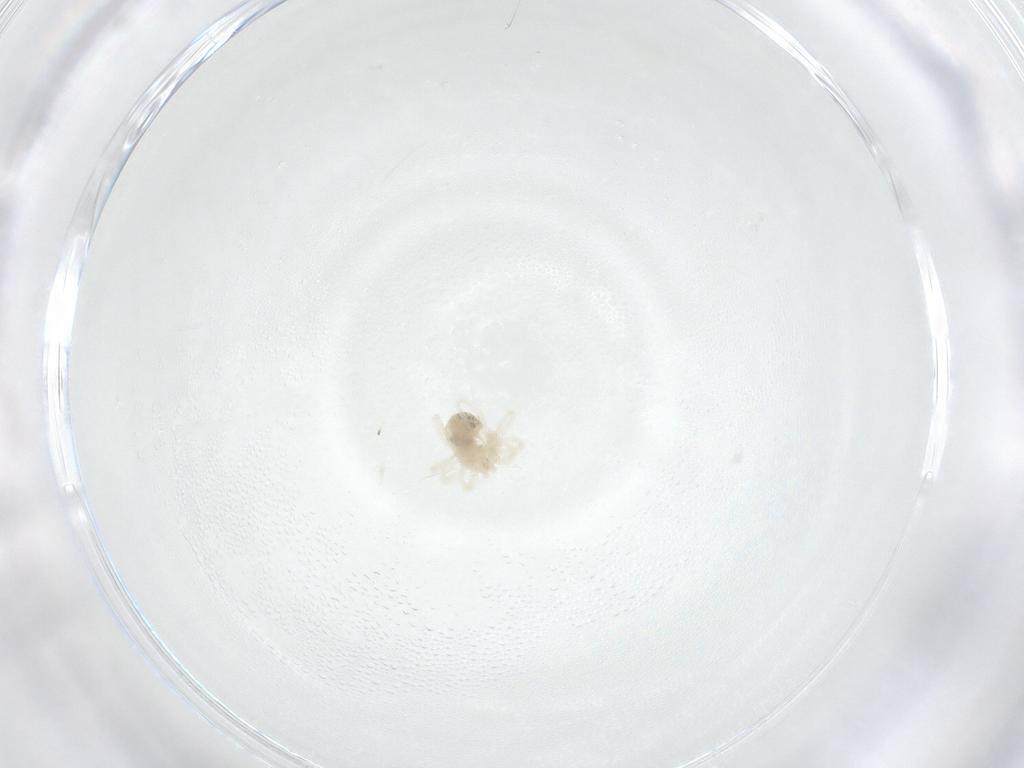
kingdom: Animalia
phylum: Arthropoda
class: Arachnida
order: Trombidiformes
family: Anystidae
